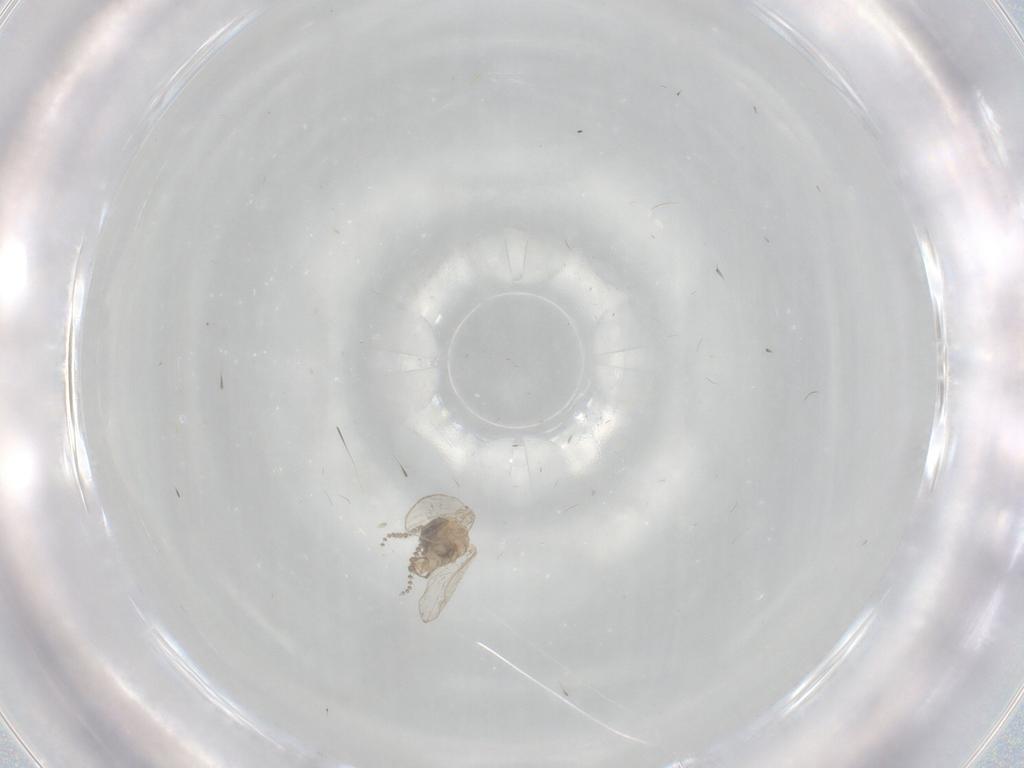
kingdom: Animalia
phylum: Arthropoda
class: Insecta
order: Diptera
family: Psychodidae
